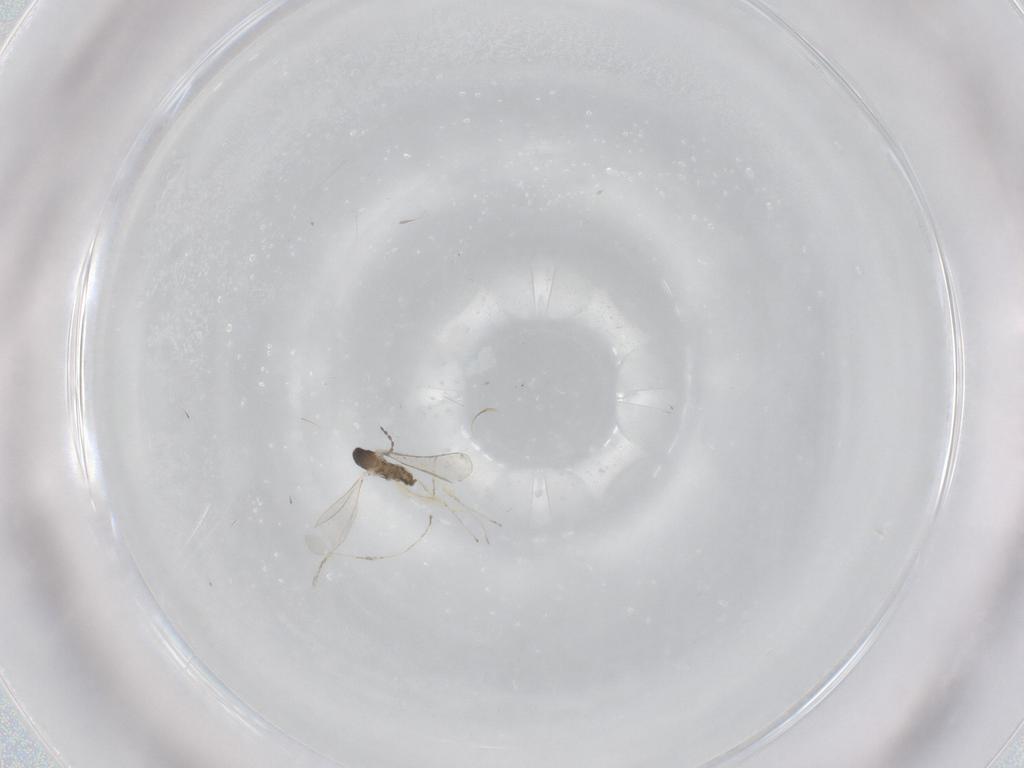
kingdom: Animalia
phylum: Arthropoda
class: Insecta
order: Diptera
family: Cecidomyiidae
